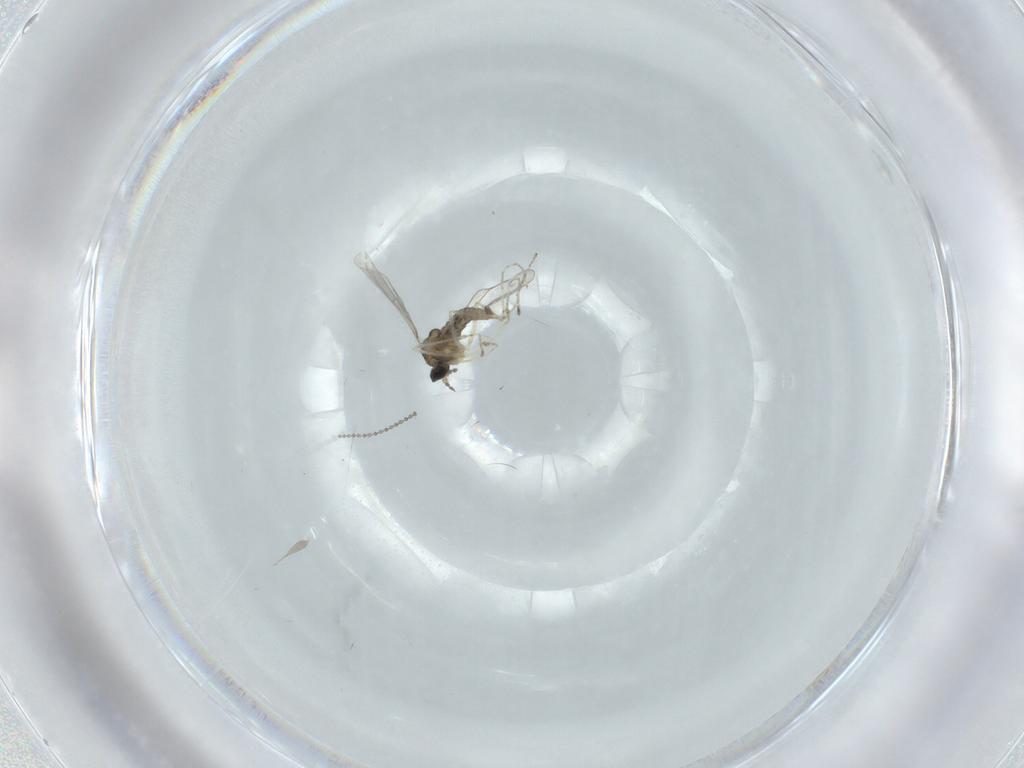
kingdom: Animalia
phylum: Arthropoda
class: Insecta
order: Diptera
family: Cecidomyiidae
